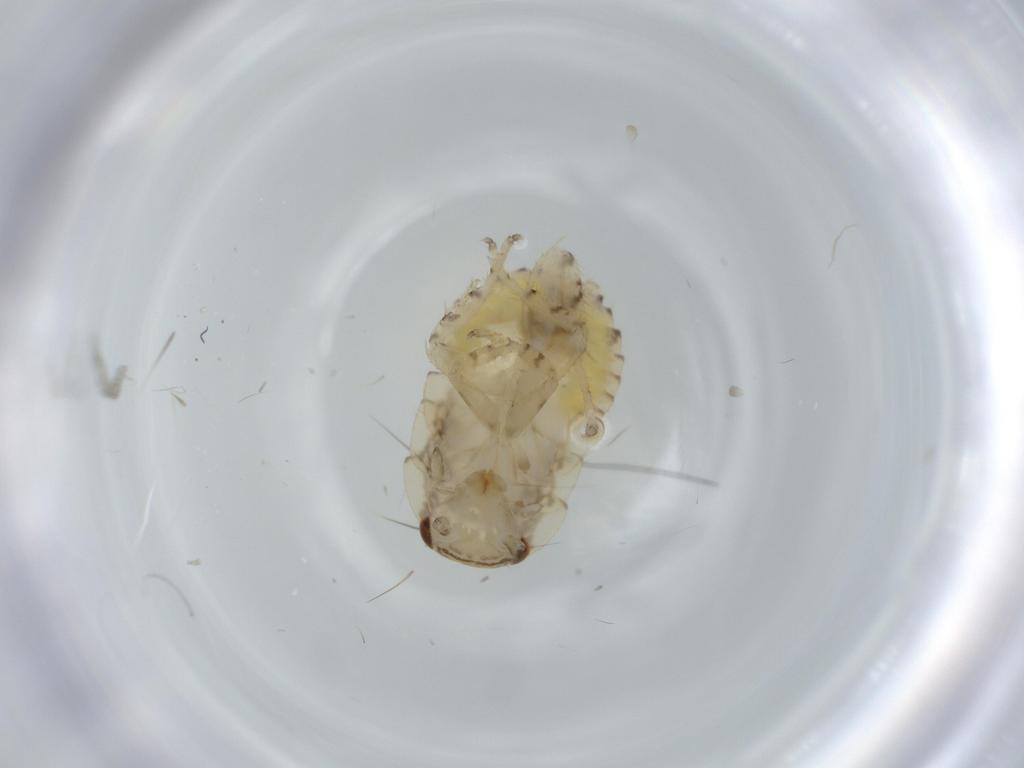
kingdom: Animalia
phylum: Arthropoda
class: Insecta
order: Blattodea
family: Ectobiidae
